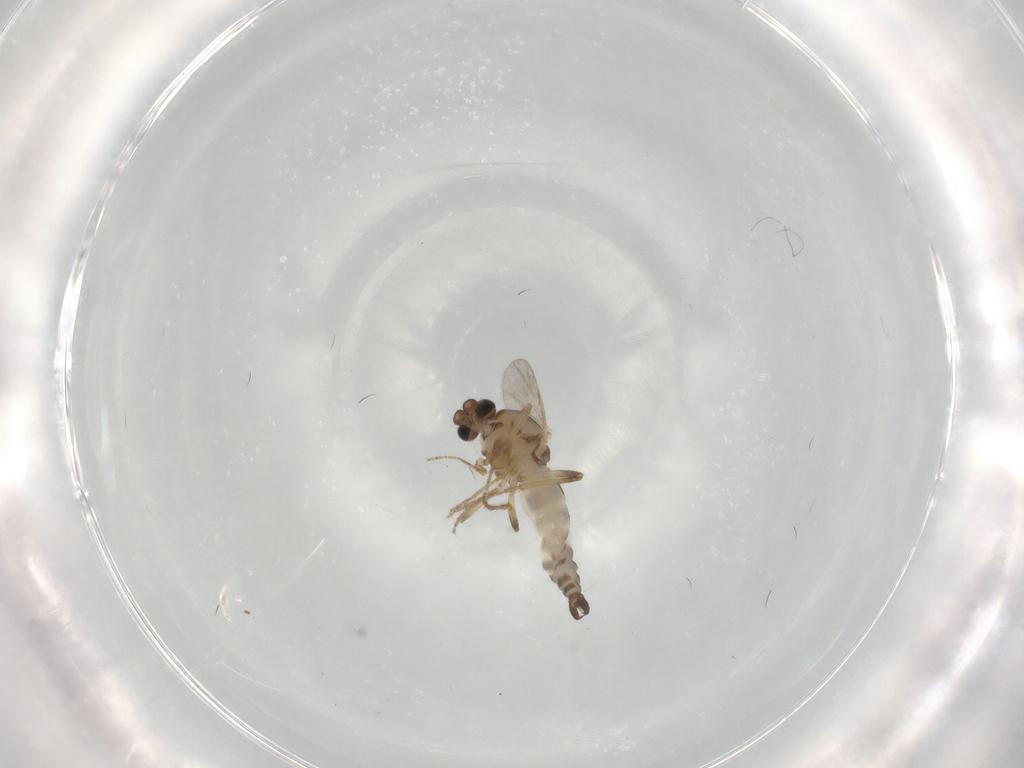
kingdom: Animalia
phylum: Arthropoda
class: Insecta
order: Diptera
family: Ceratopogonidae
